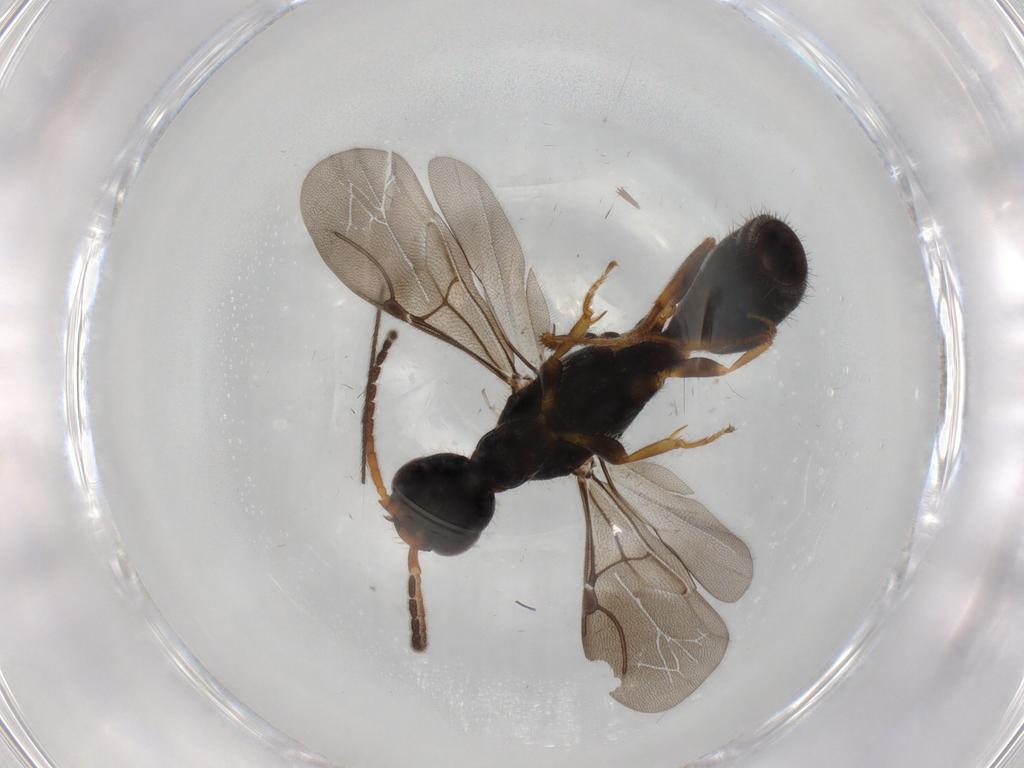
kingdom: Animalia
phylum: Arthropoda
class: Insecta
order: Hymenoptera
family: Bethylidae
